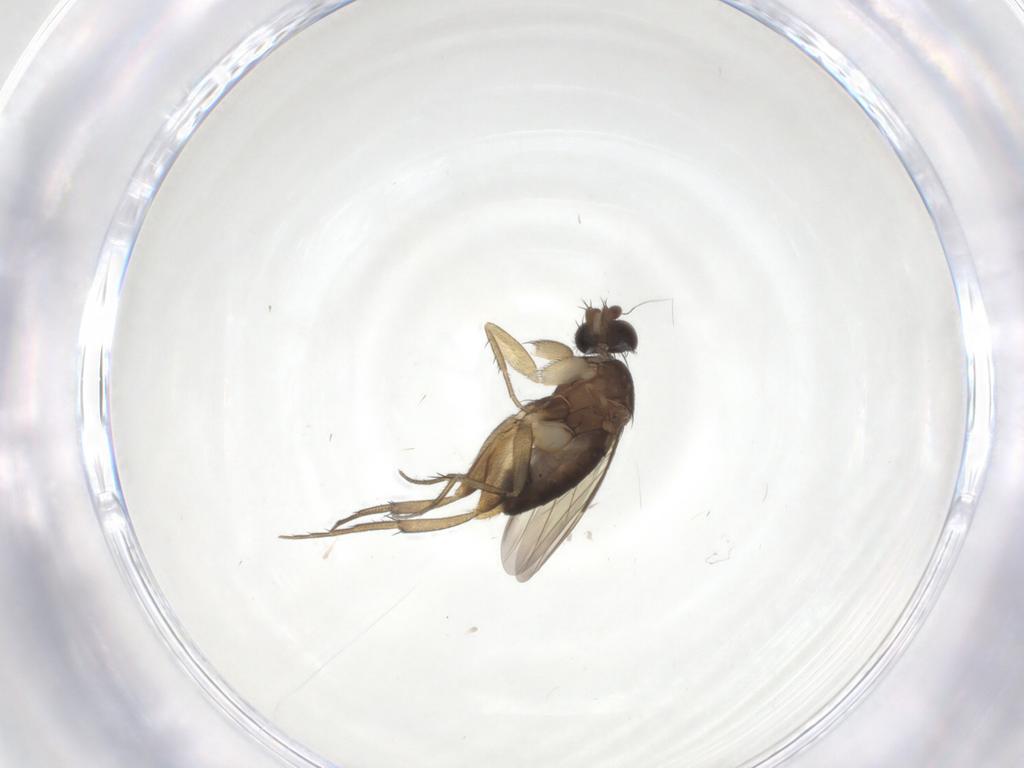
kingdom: Animalia
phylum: Arthropoda
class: Insecta
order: Diptera
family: Phoridae
